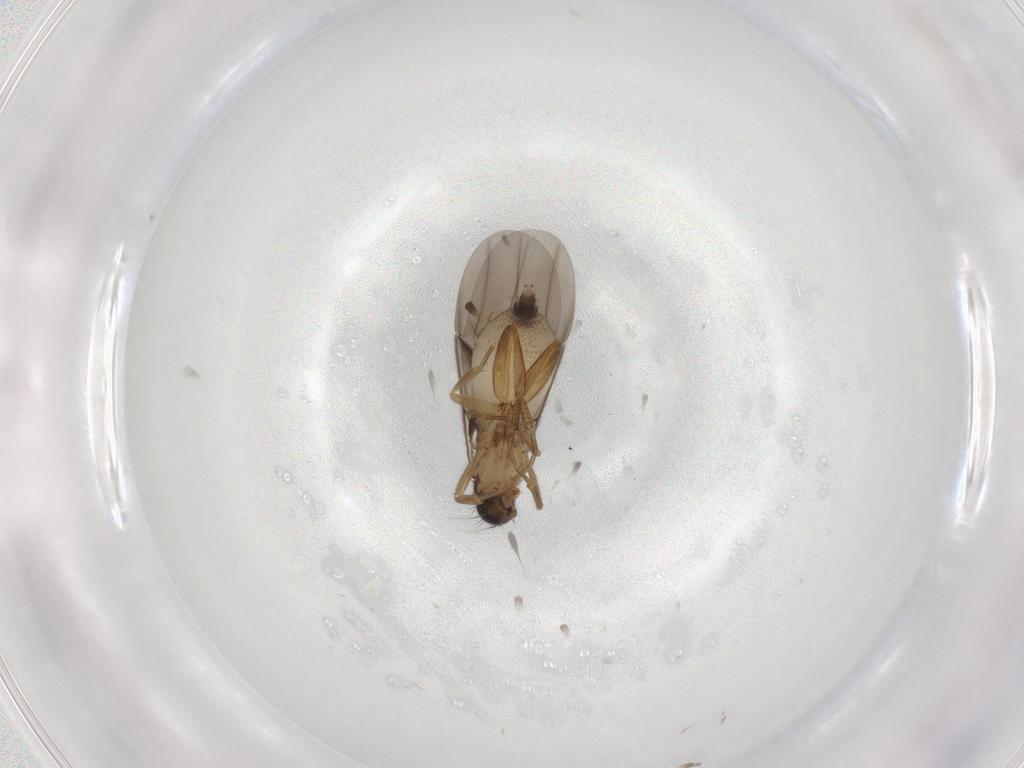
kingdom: Animalia
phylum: Arthropoda
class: Insecta
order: Diptera
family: Phoridae
